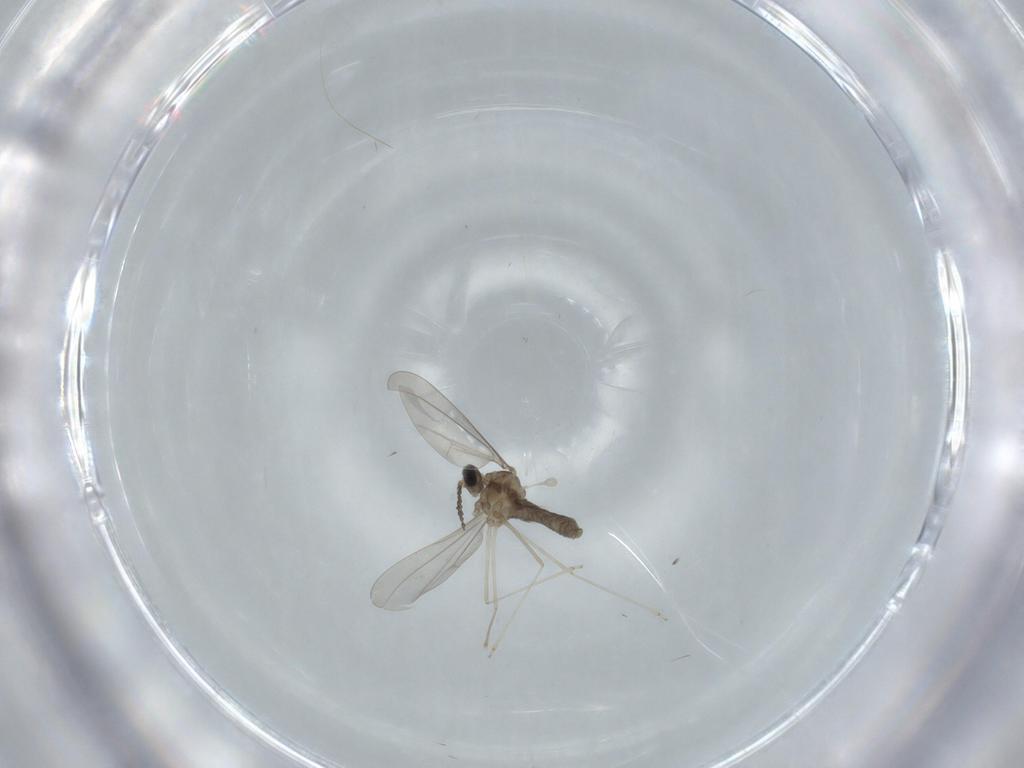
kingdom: Animalia
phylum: Arthropoda
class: Insecta
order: Diptera
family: Cecidomyiidae
